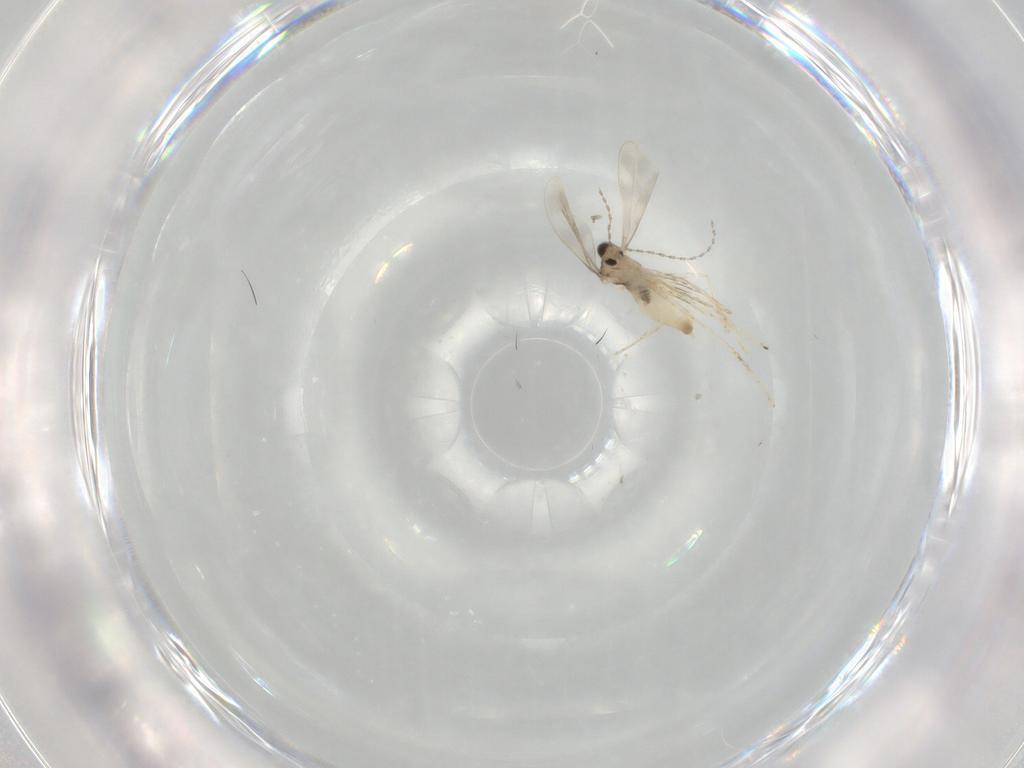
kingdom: Animalia
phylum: Arthropoda
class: Insecta
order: Diptera
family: Cecidomyiidae
